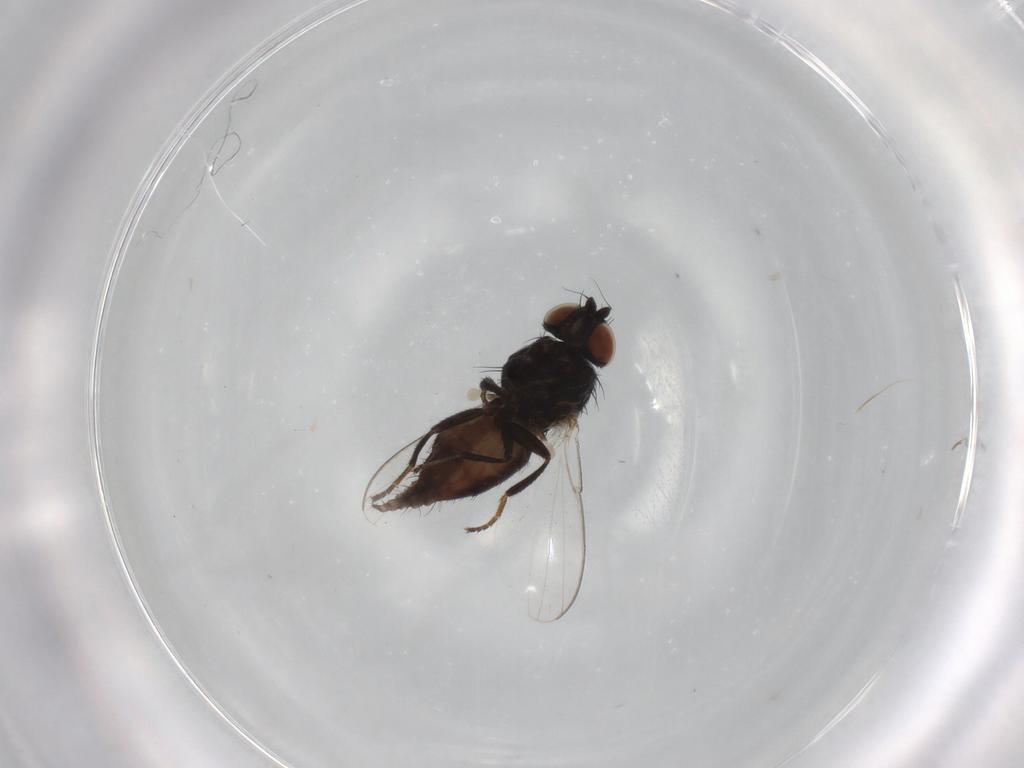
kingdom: Animalia
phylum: Arthropoda
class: Insecta
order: Diptera
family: Milichiidae
